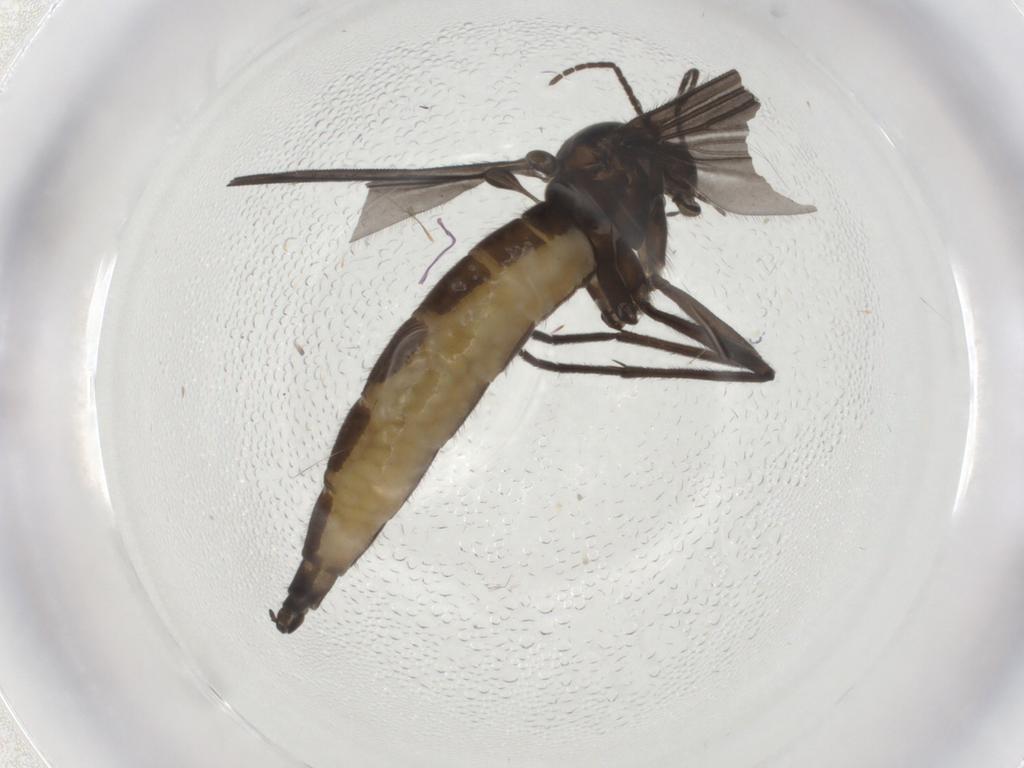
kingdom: Animalia
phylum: Arthropoda
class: Insecta
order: Diptera
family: Sciaridae
